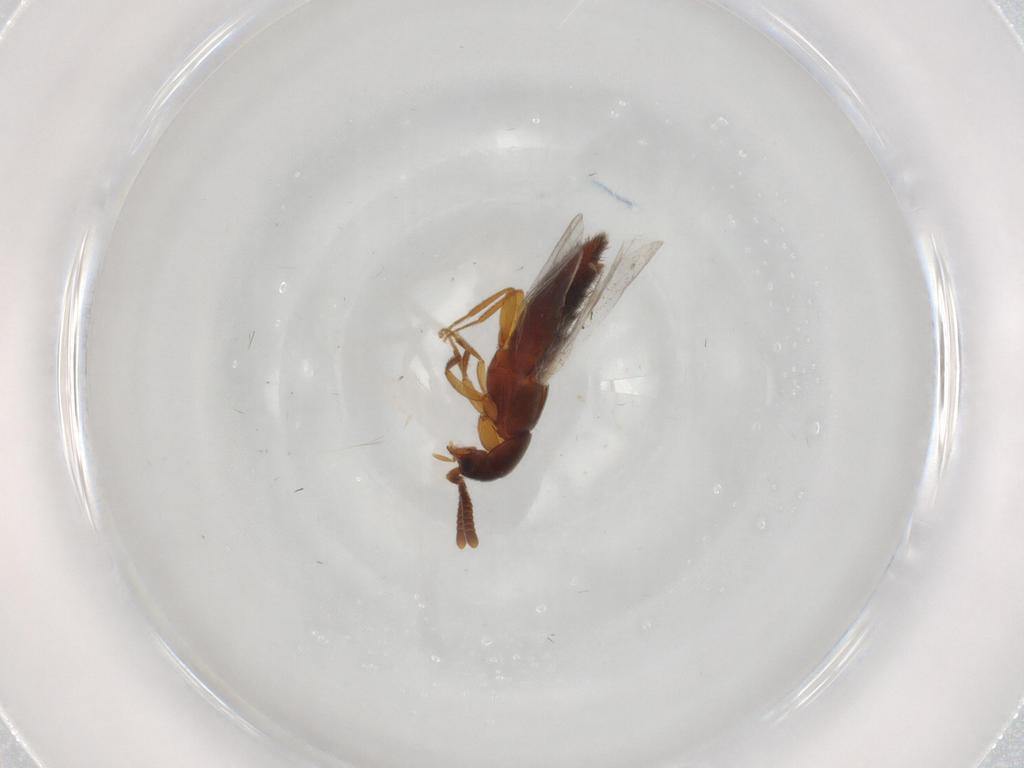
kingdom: Animalia
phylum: Arthropoda
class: Insecta
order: Coleoptera
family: Staphylinidae
